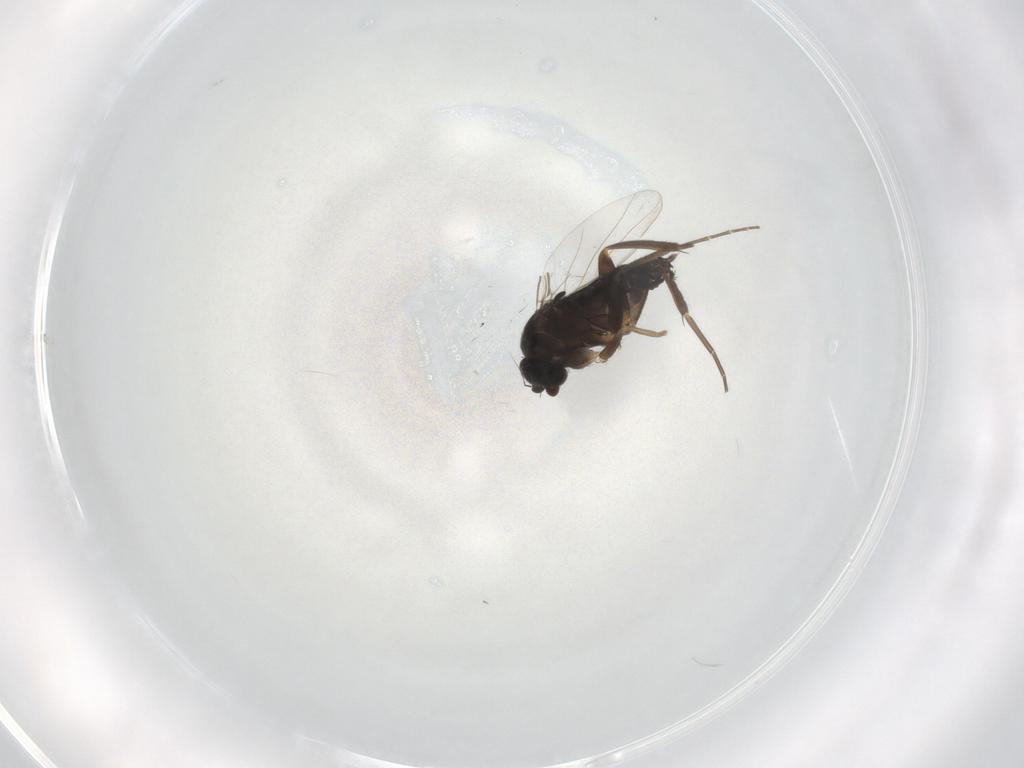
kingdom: Animalia
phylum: Arthropoda
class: Insecta
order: Diptera
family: Phoridae
